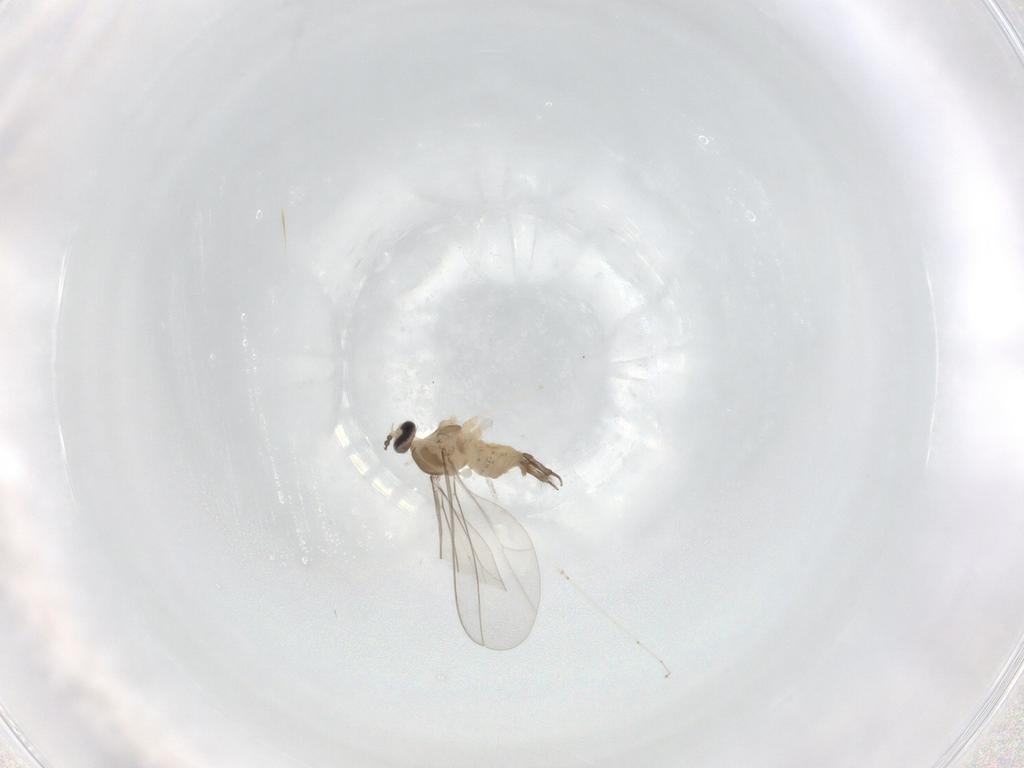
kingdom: Animalia
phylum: Arthropoda
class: Insecta
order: Diptera
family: Cecidomyiidae
